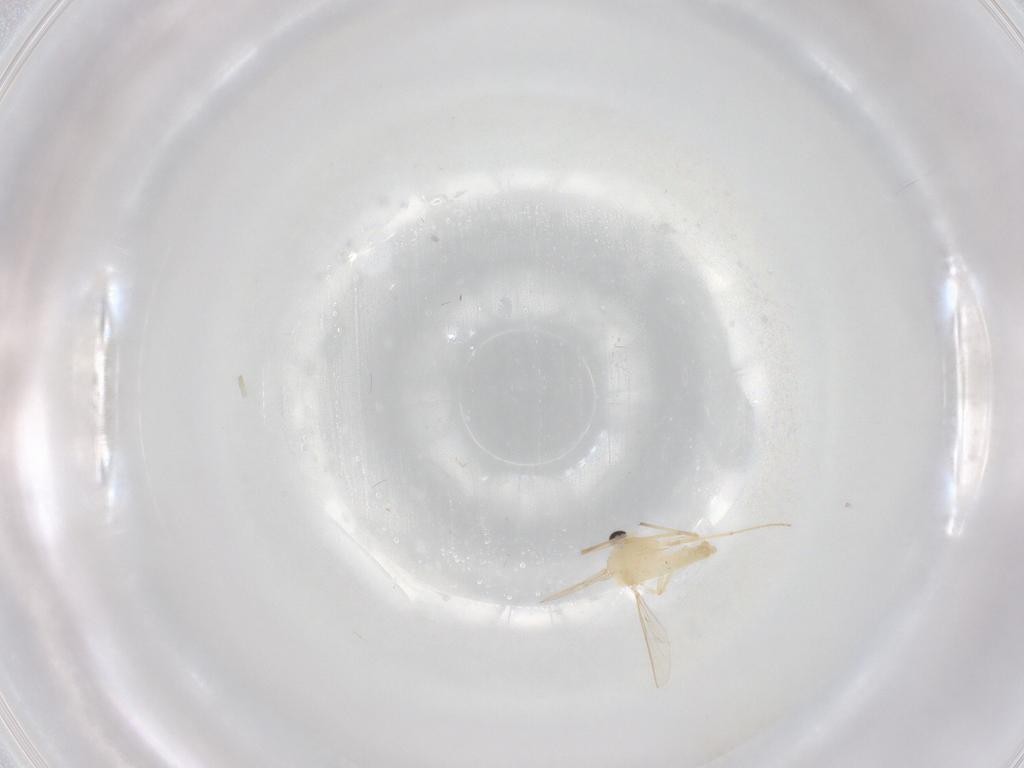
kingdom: Animalia
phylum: Arthropoda
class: Insecta
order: Diptera
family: Chironomidae
